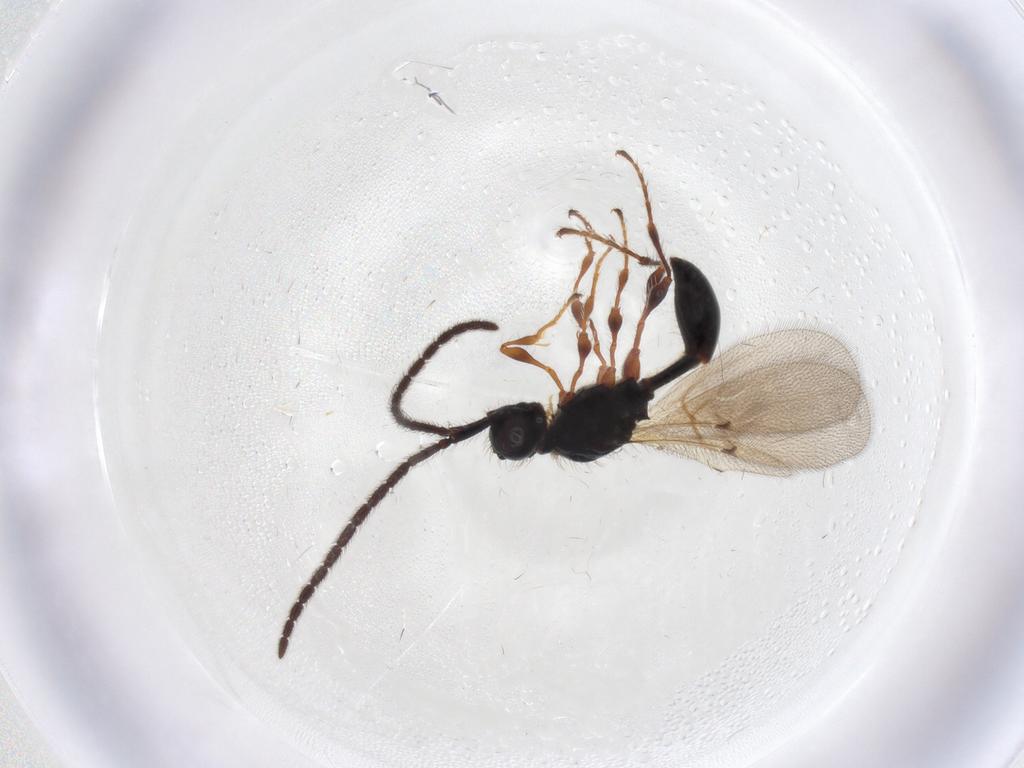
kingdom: Animalia
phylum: Arthropoda
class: Insecta
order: Hymenoptera
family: Diapriidae
